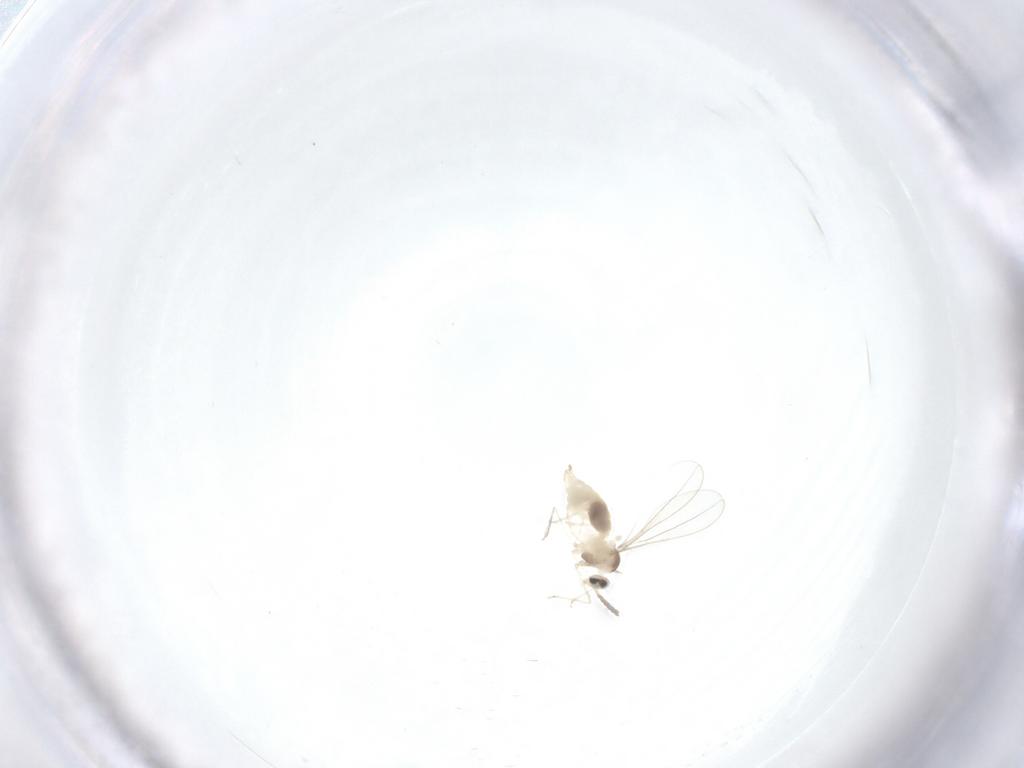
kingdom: Animalia
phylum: Arthropoda
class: Insecta
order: Diptera
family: Cecidomyiidae
